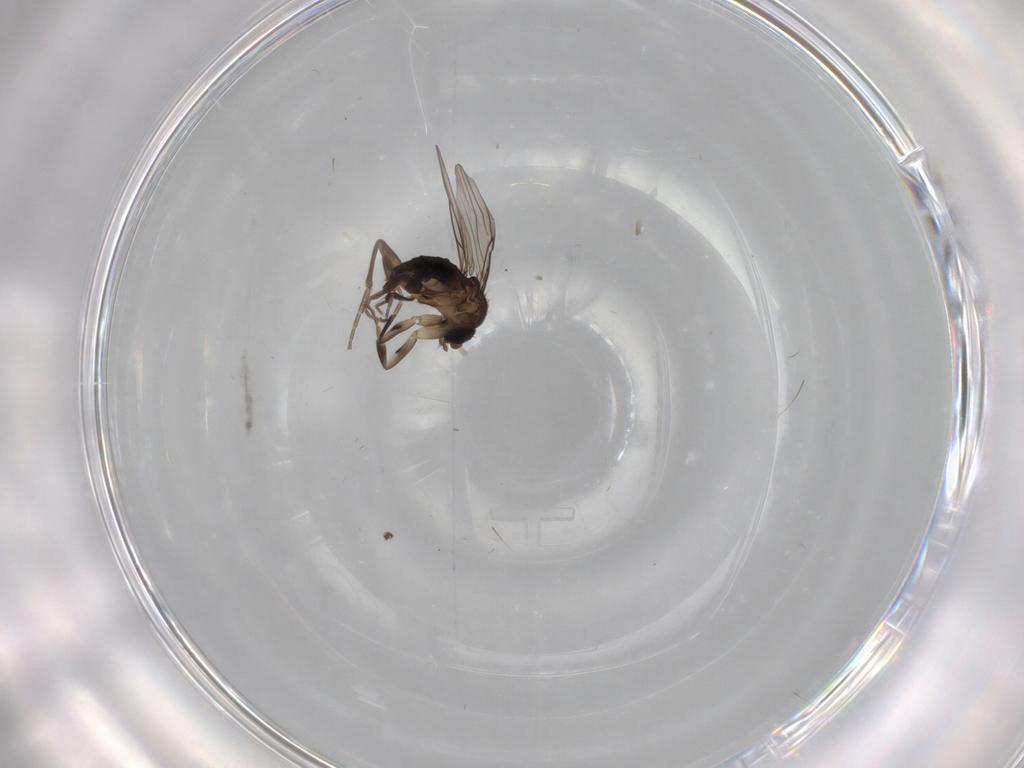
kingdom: Animalia
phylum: Arthropoda
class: Insecta
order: Diptera
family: Phoridae
